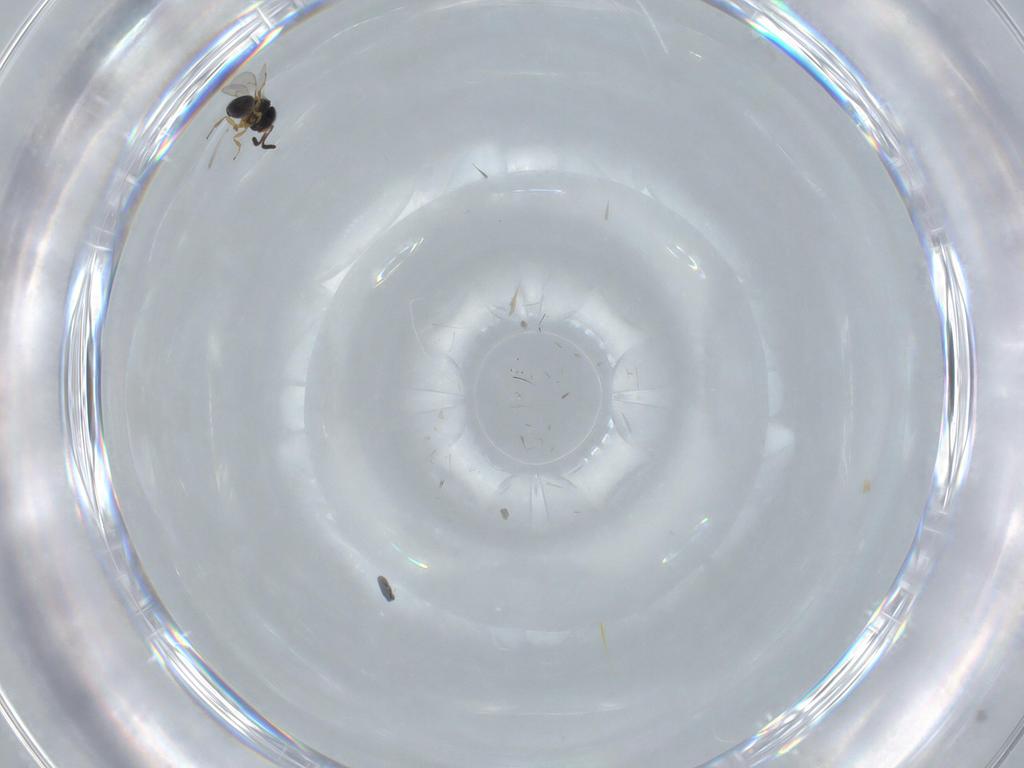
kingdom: Animalia
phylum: Arthropoda
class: Insecta
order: Hymenoptera
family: Scelionidae
